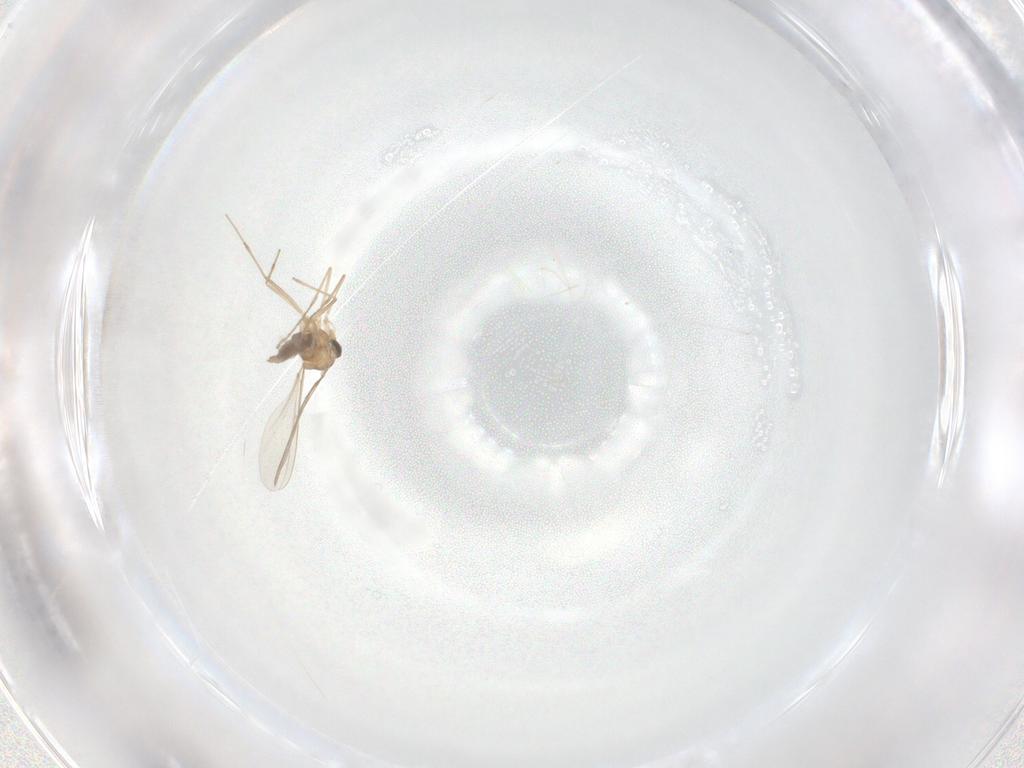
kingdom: Animalia
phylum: Arthropoda
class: Insecta
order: Diptera
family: Cecidomyiidae
